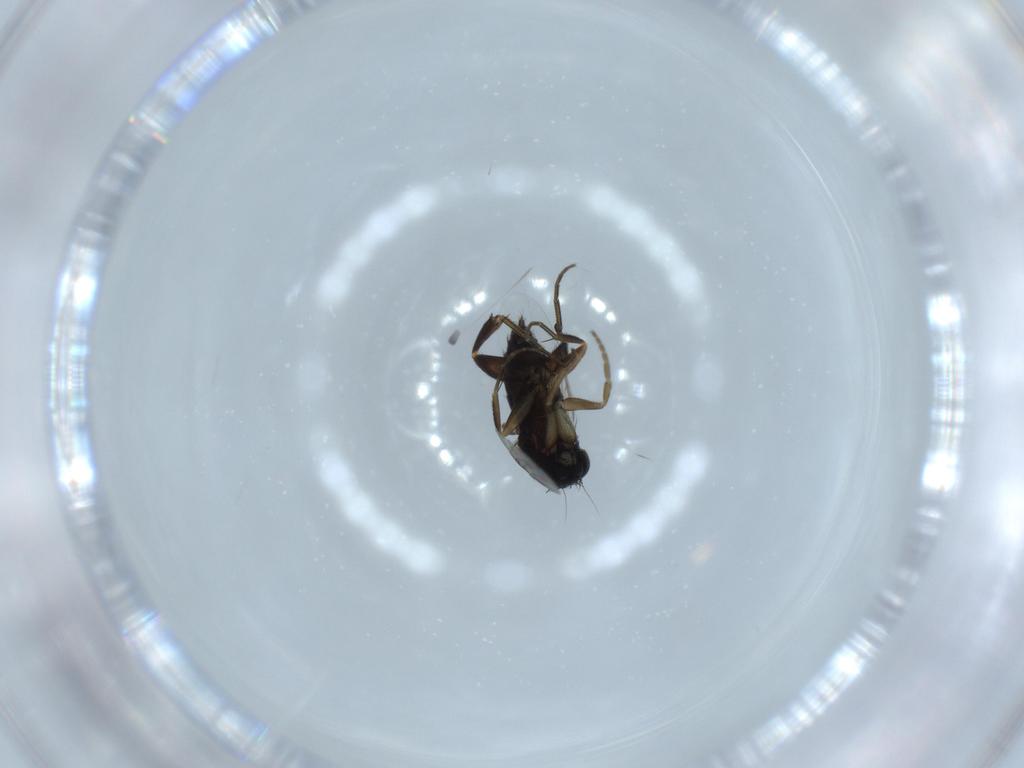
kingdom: Animalia
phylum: Arthropoda
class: Insecta
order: Diptera
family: Phoridae
